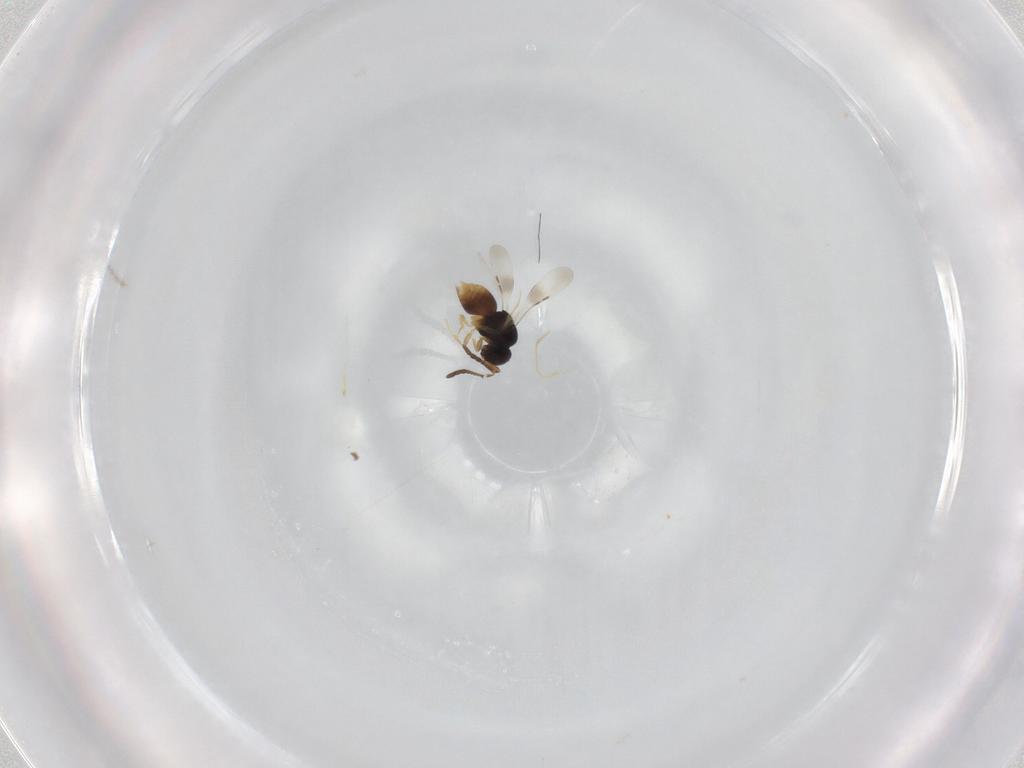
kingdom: Animalia
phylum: Arthropoda
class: Insecta
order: Hymenoptera
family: Ceraphronidae
